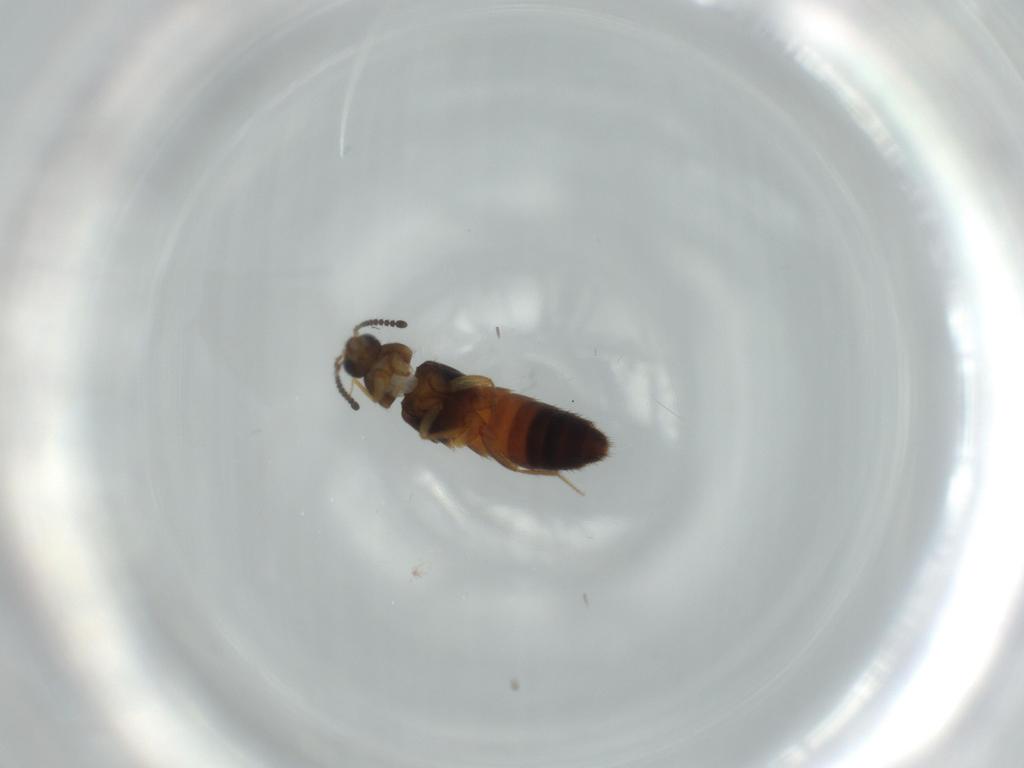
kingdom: Animalia
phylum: Arthropoda
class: Insecta
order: Coleoptera
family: Staphylinidae
